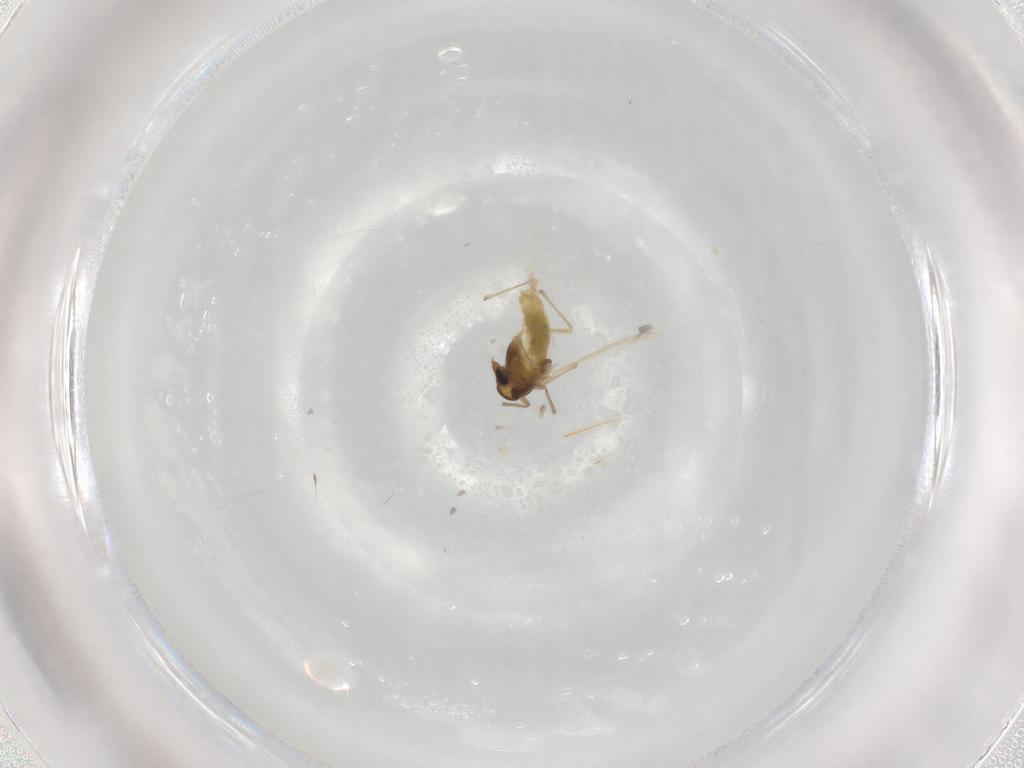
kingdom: Animalia
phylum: Arthropoda
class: Insecta
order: Diptera
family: Chironomidae
